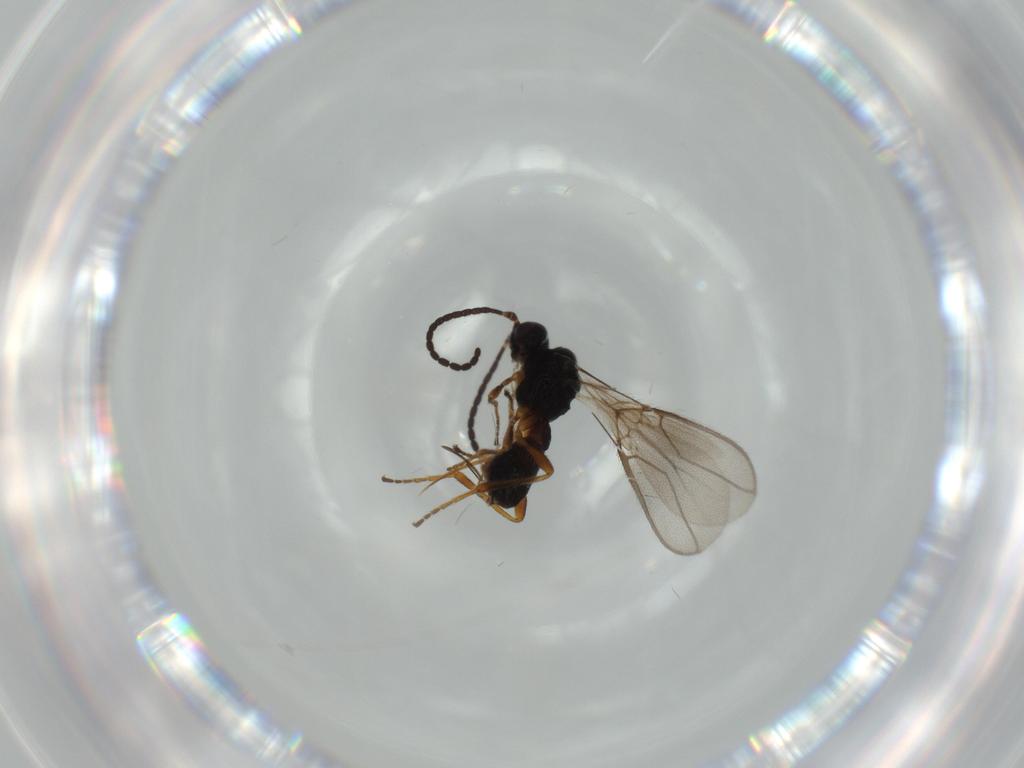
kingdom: Animalia
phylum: Arthropoda
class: Insecta
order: Hymenoptera
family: Braconidae
